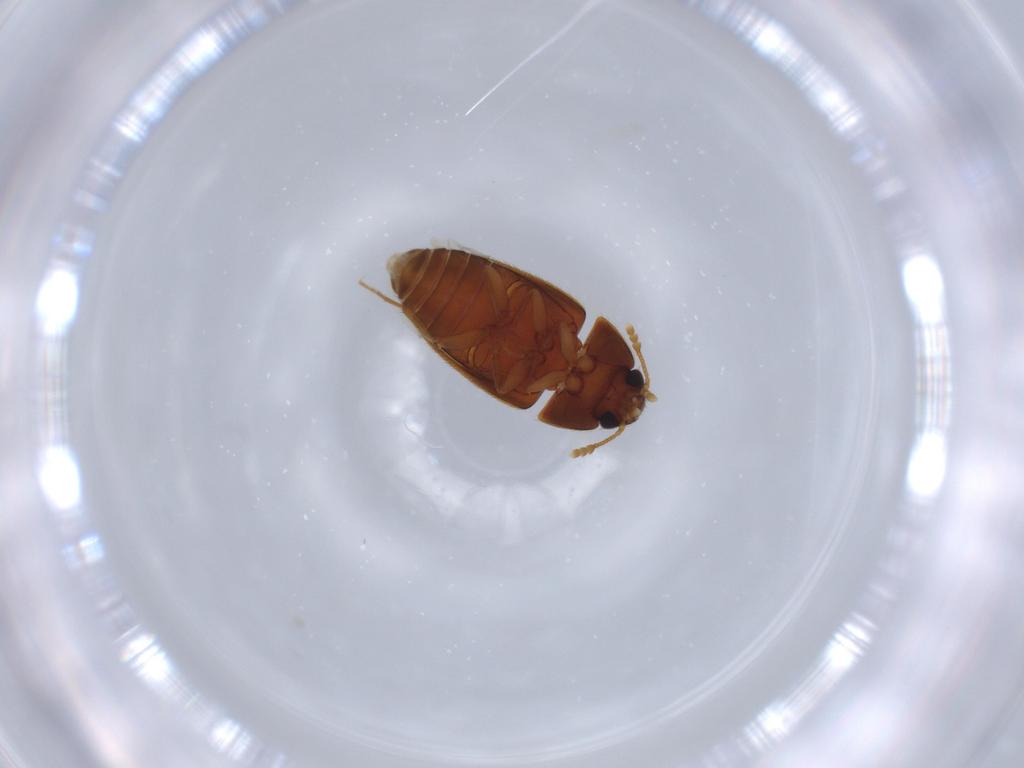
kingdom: Animalia
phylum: Arthropoda
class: Insecta
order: Coleoptera
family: Mycetophagidae
